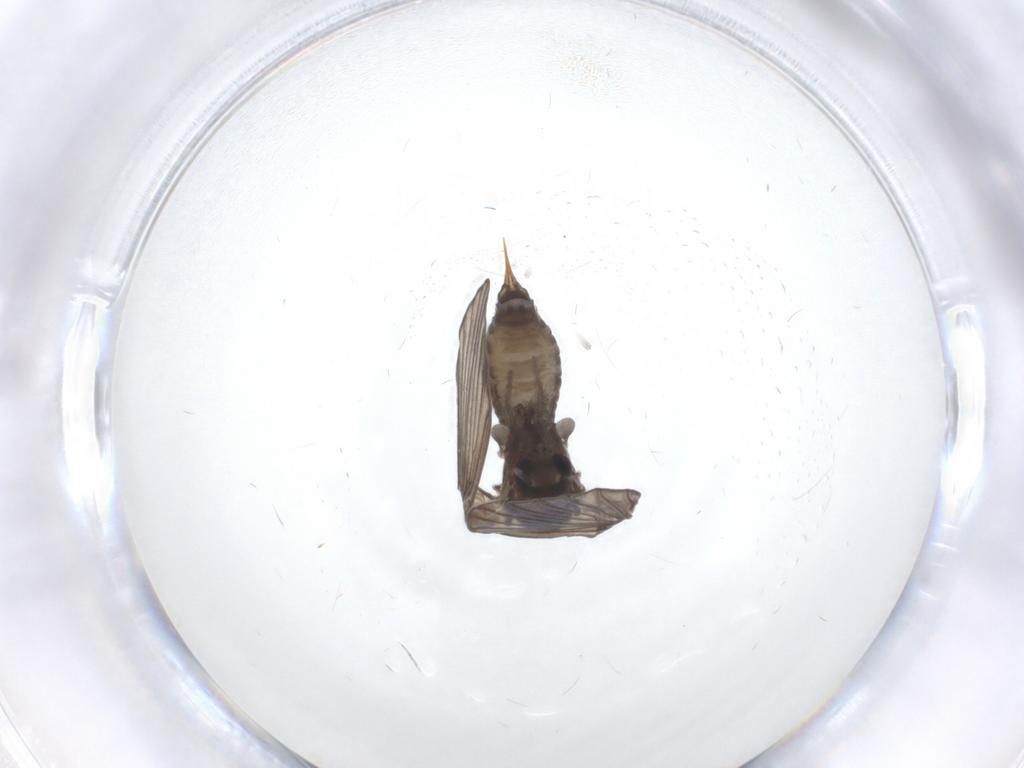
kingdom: Animalia
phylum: Arthropoda
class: Insecta
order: Diptera
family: Psychodidae
